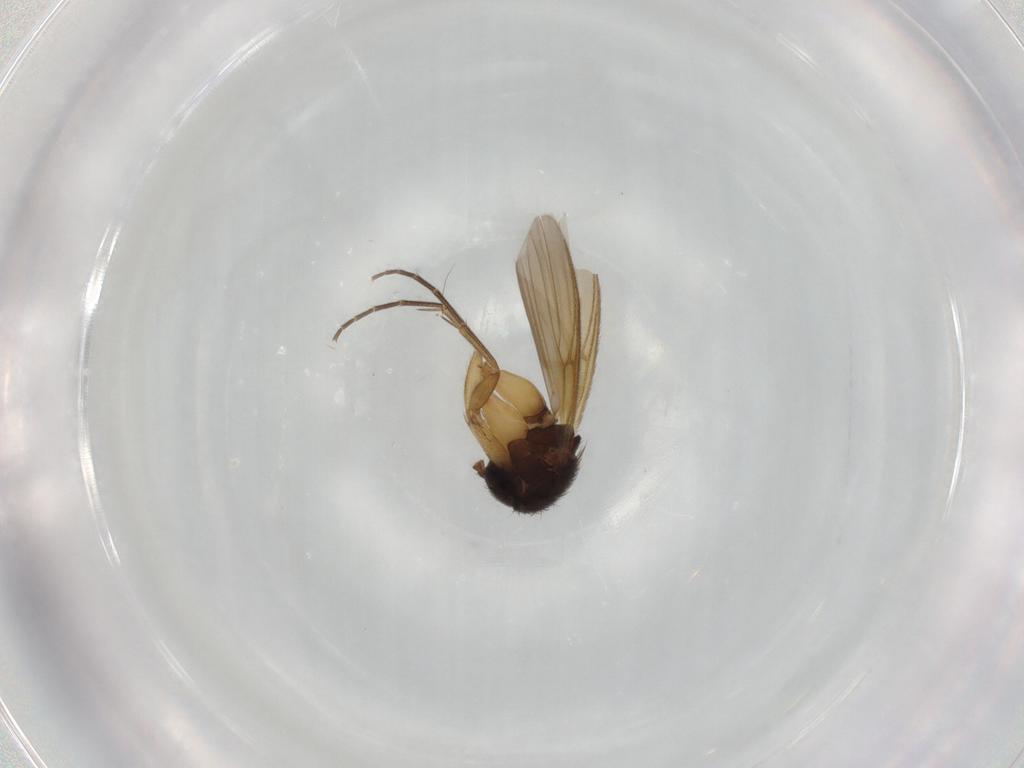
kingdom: Animalia
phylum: Arthropoda
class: Insecta
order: Diptera
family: Mycetophilidae
